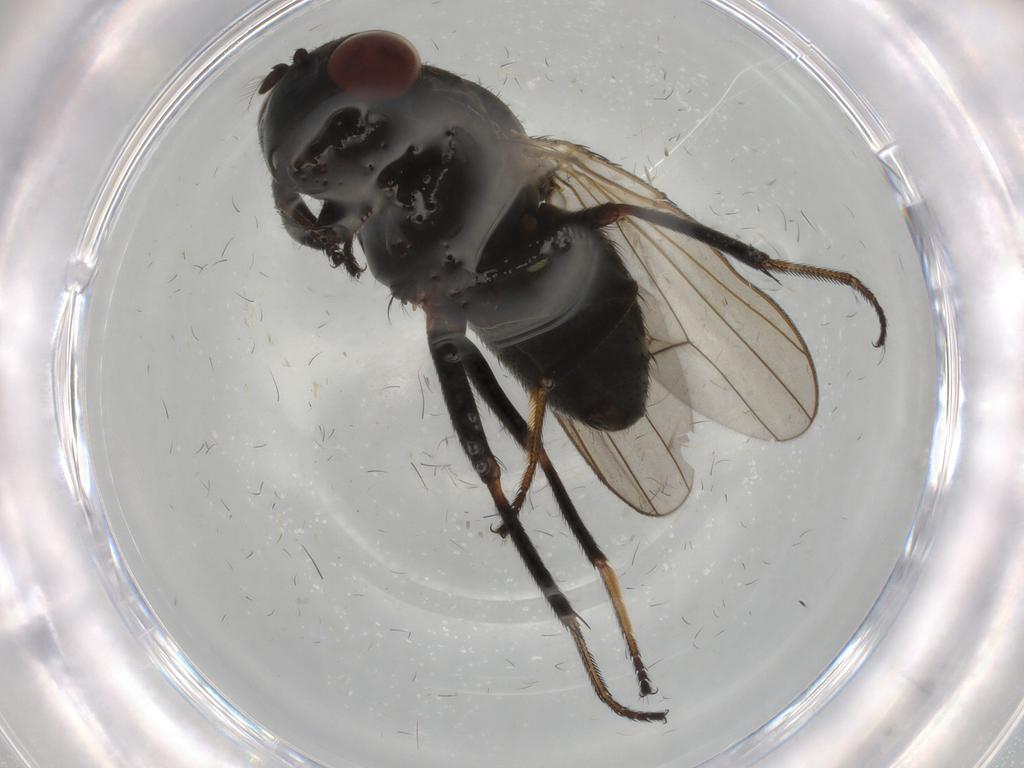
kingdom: Animalia
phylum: Arthropoda
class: Insecta
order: Diptera
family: Ephydridae
